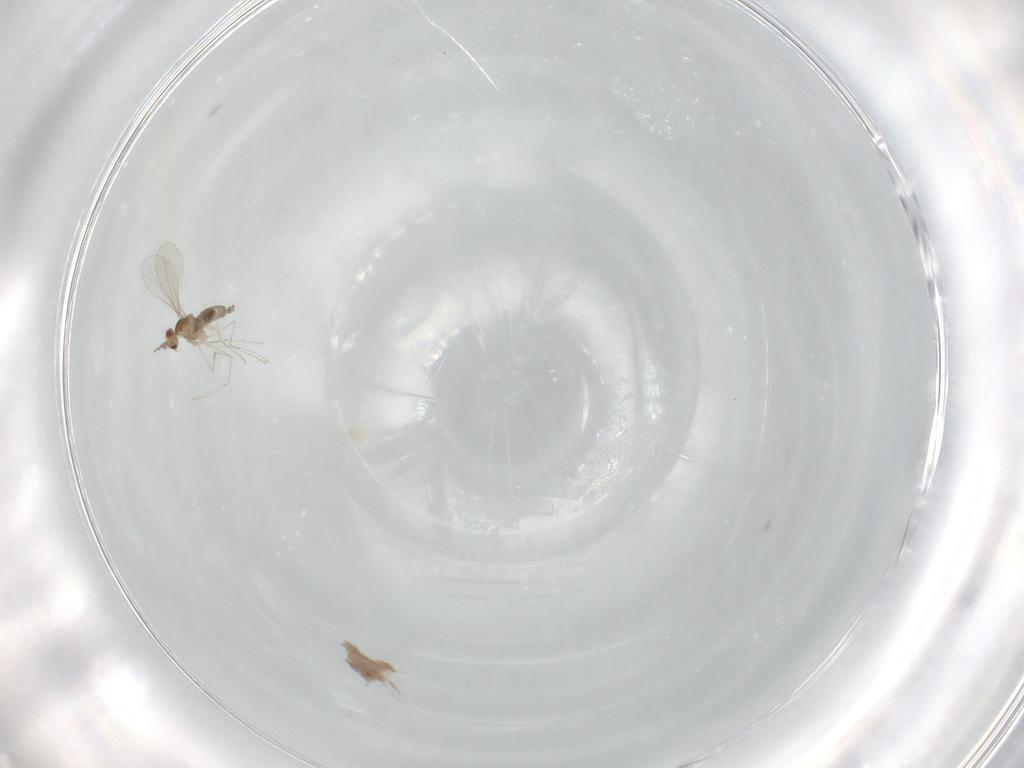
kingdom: Animalia
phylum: Arthropoda
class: Insecta
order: Diptera
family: Cecidomyiidae
